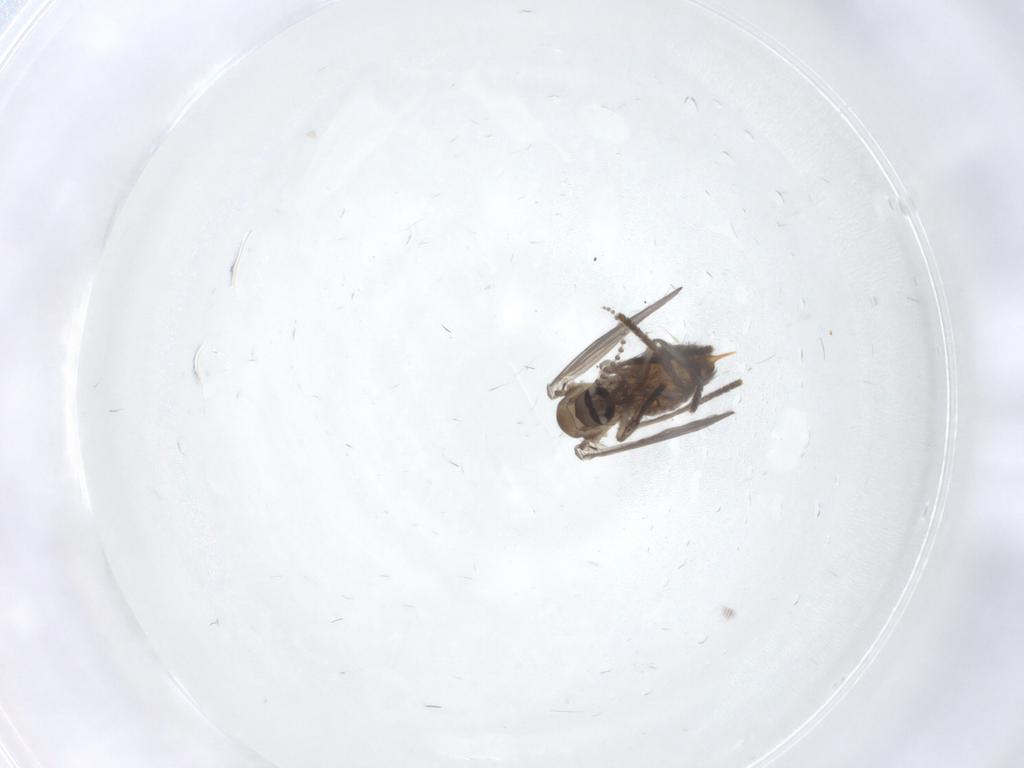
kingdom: Animalia
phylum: Arthropoda
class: Insecta
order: Diptera
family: Psychodidae
